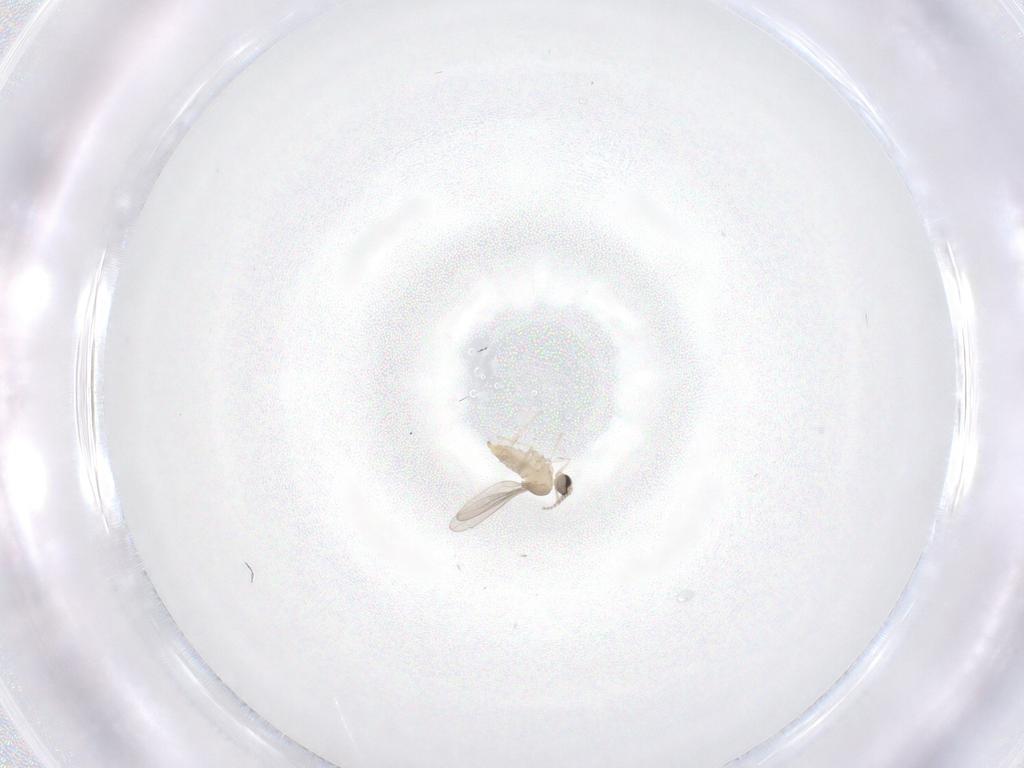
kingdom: Animalia
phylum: Arthropoda
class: Insecta
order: Diptera
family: Cecidomyiidae
